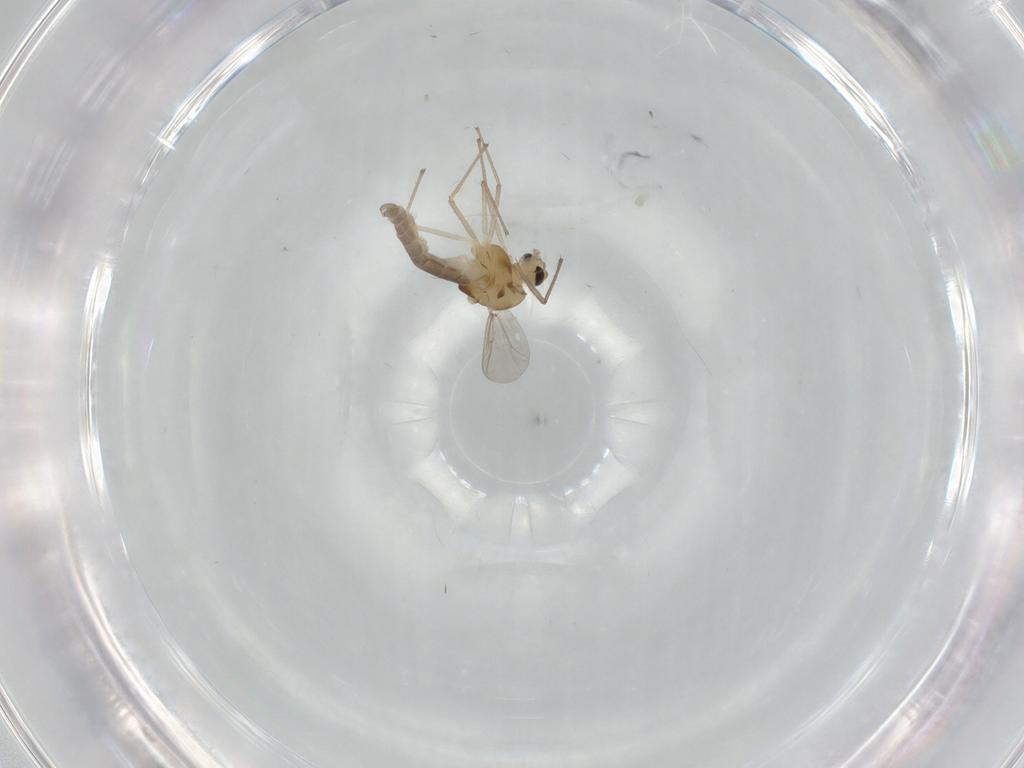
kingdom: Animalia
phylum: Arthropoda
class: Insecta
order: Diptera
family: Chironomidae
